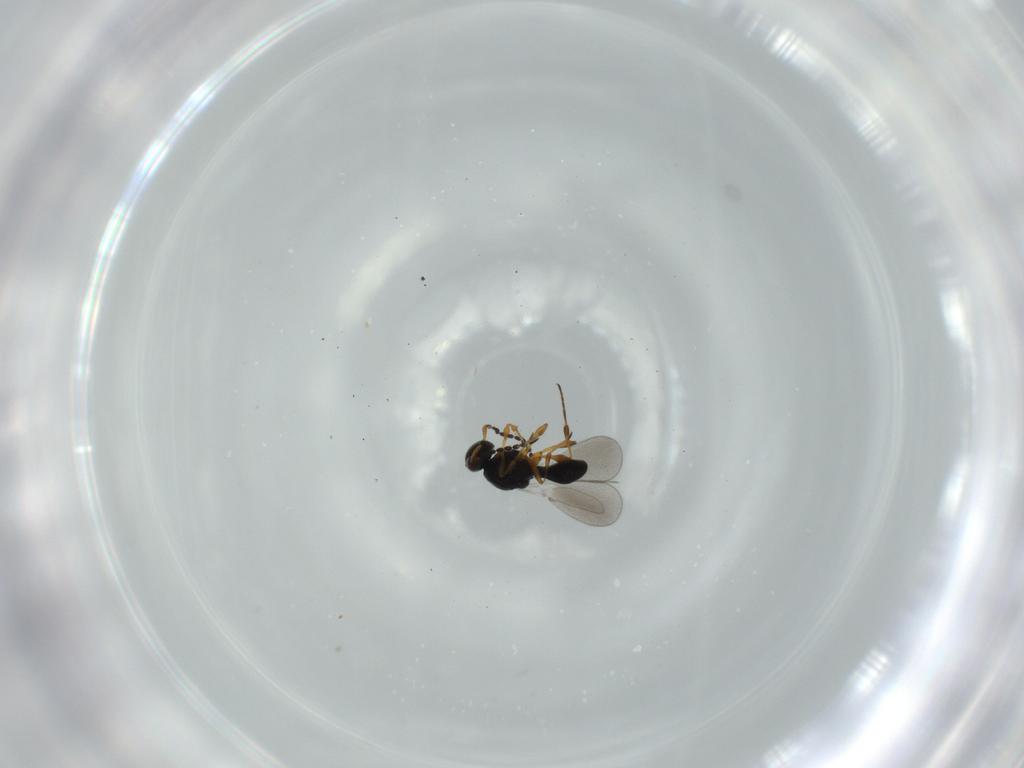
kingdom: Animalia
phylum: Arthropoda
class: Insecta
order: Hymenoptera
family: Platygastridae
